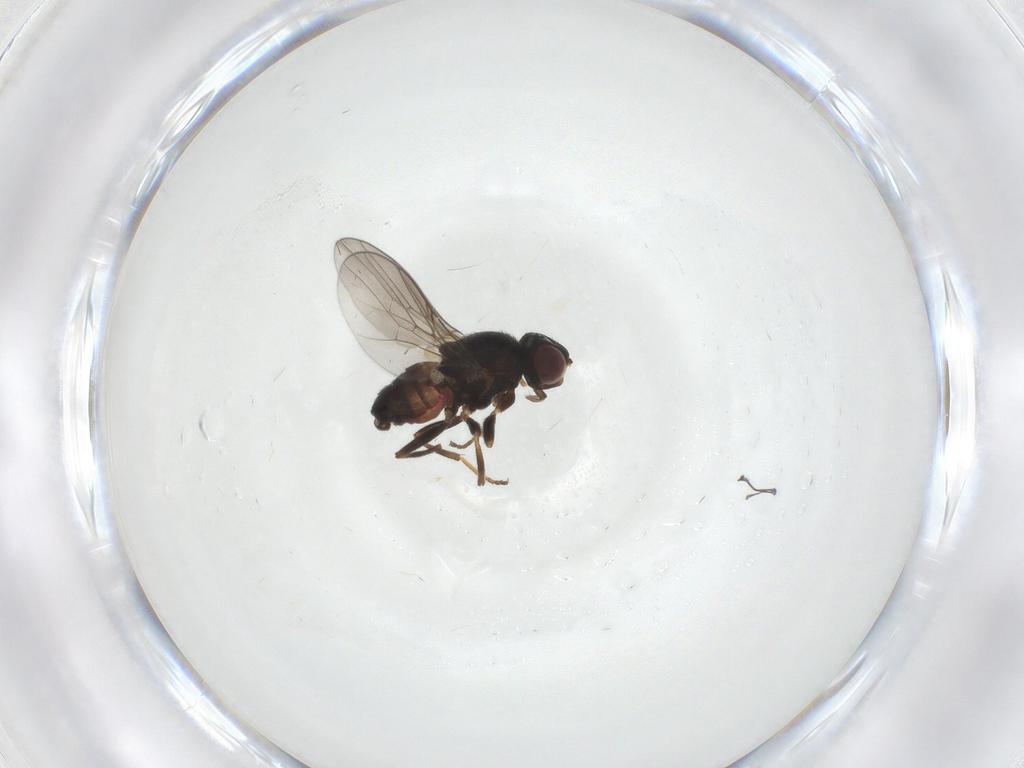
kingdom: Animalia
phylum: Arthropoda
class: Insecta
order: Diptera
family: Chloropidae
